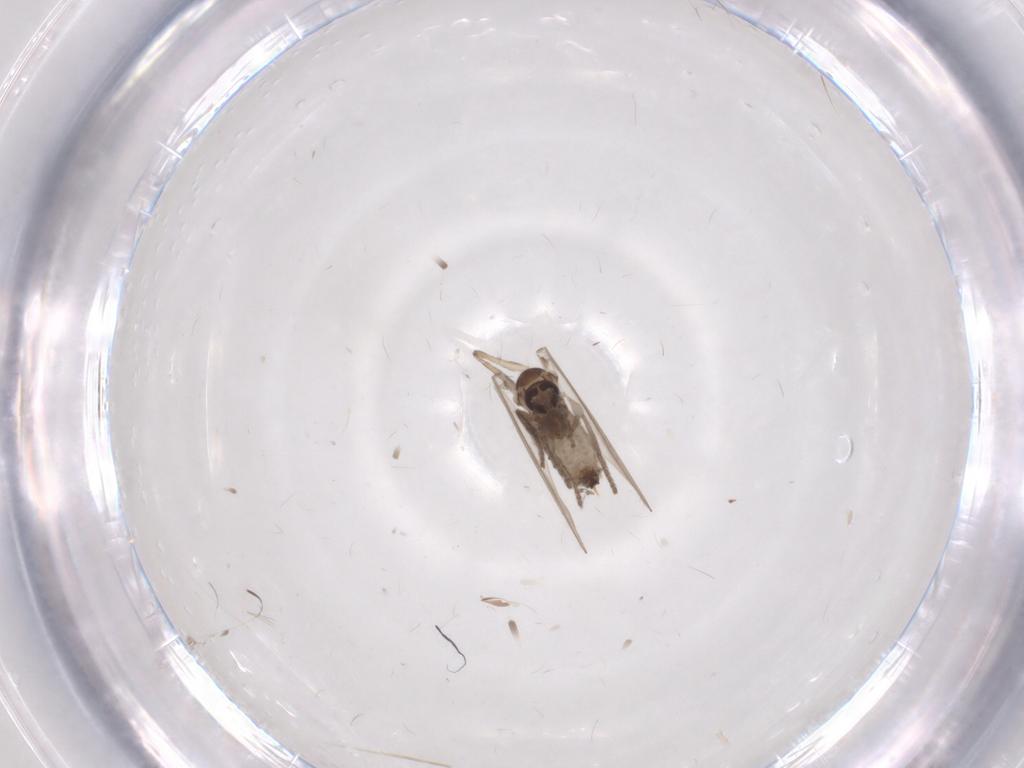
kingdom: Animalia
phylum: Arthropoda
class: Insecta
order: Diptera
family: Psychodidae
